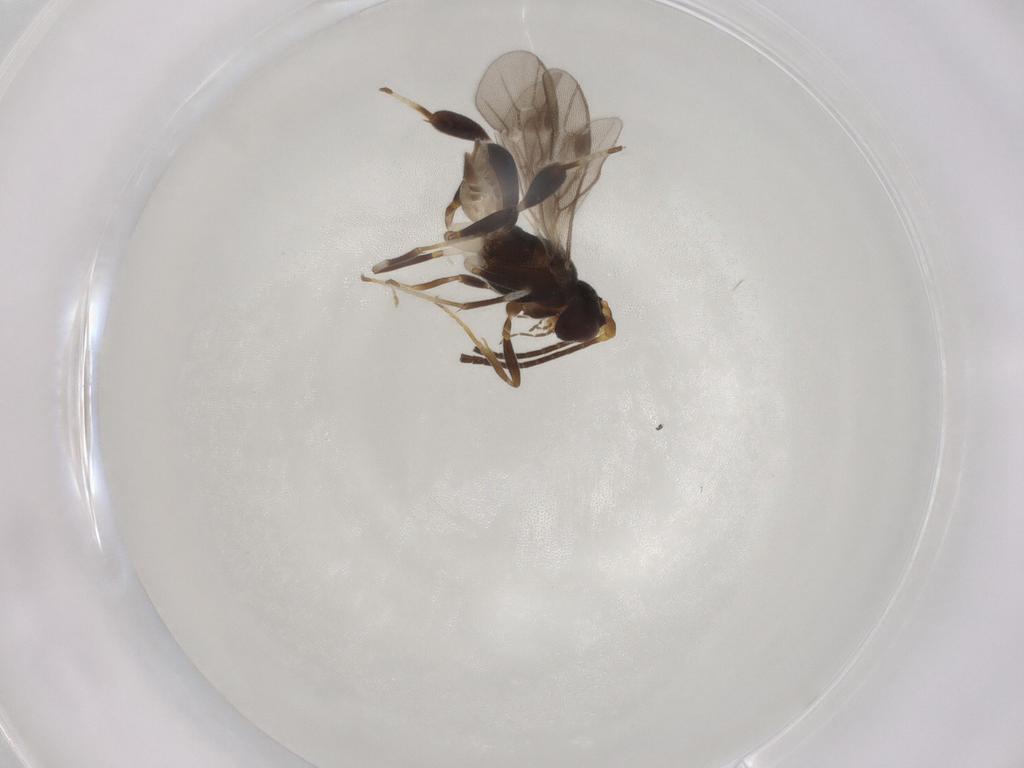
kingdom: Animalia
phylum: Arthropoda
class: Insecta
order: Hymenoptera
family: Braconidae
